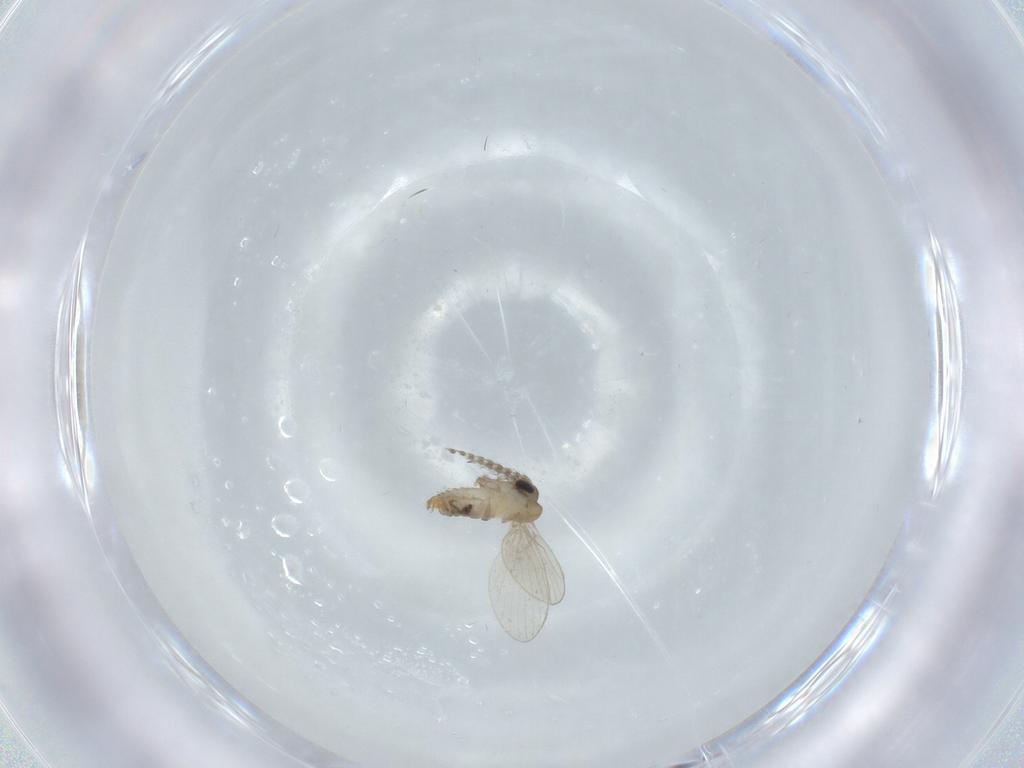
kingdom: Animalia
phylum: Arthropoda
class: Insecta
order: Diptera
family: Psychodidae
